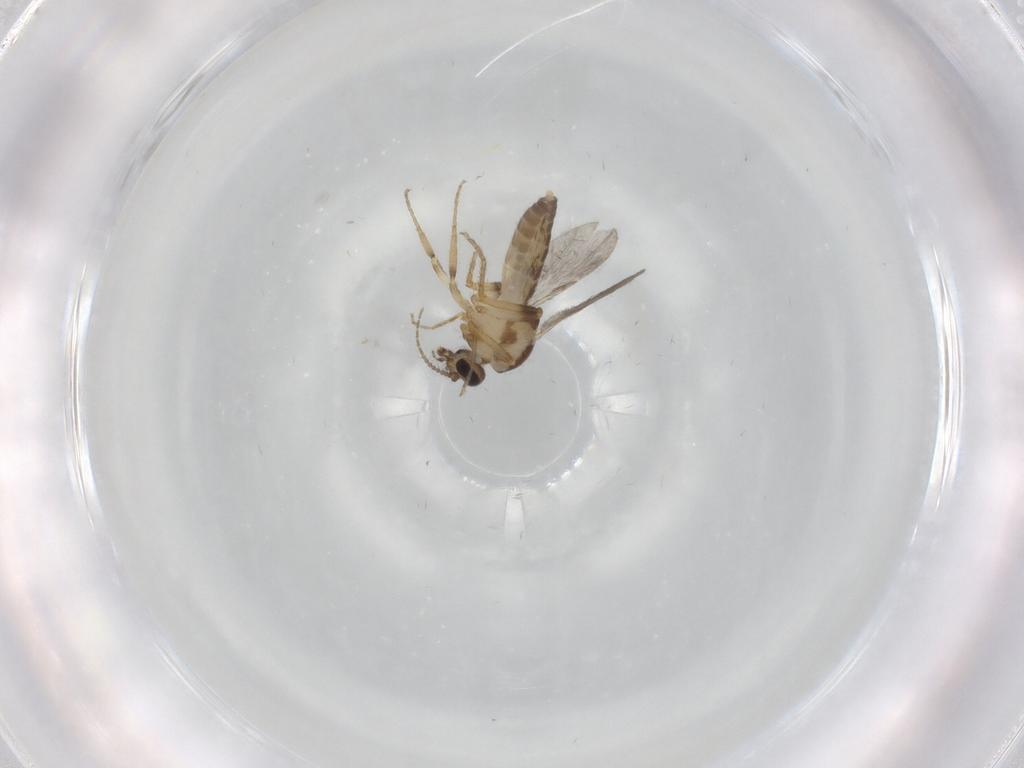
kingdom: Animalia
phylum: Arthropoda
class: Insecta
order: Diptera
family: Ceratopogonidae
